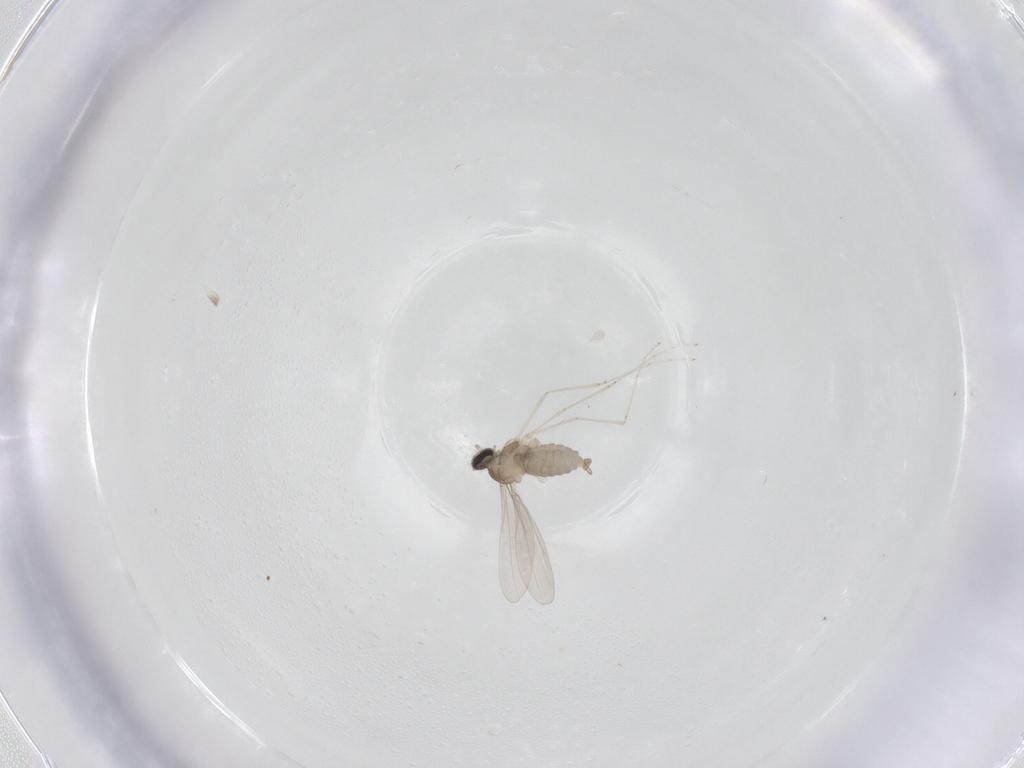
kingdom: Animalia
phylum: Arthropoda
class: Insecta
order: Diptera
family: Cecidomyiidae
